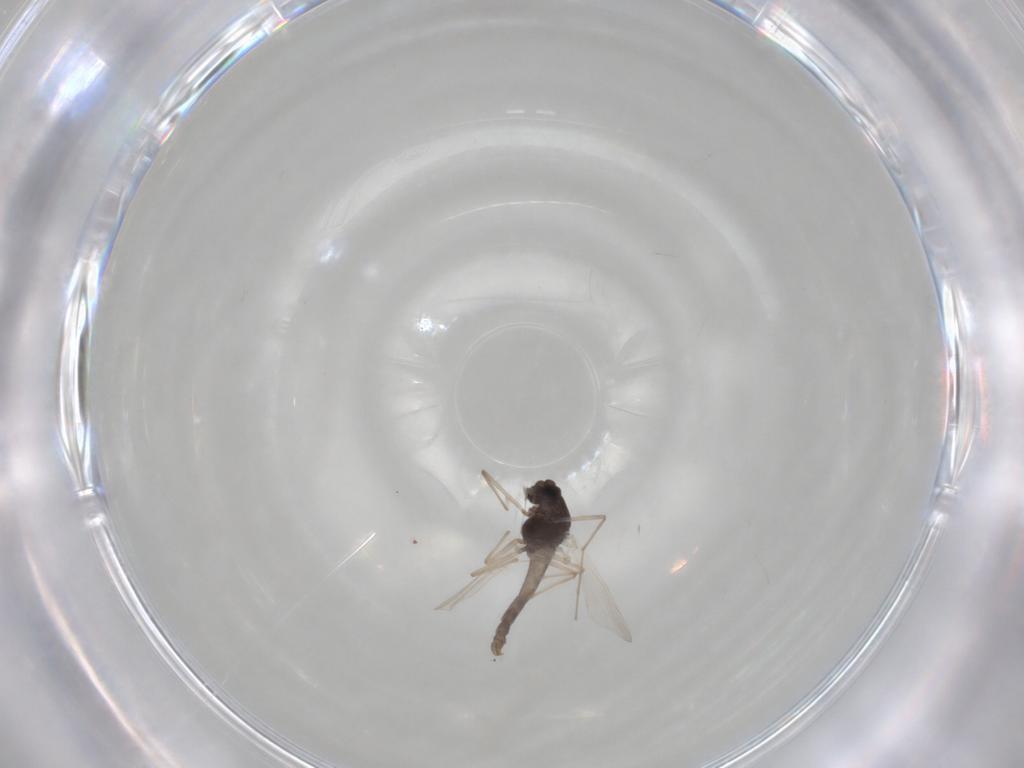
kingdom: Animalia
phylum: Arthropoda
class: Insecta
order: Diptera
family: Chironomidae
